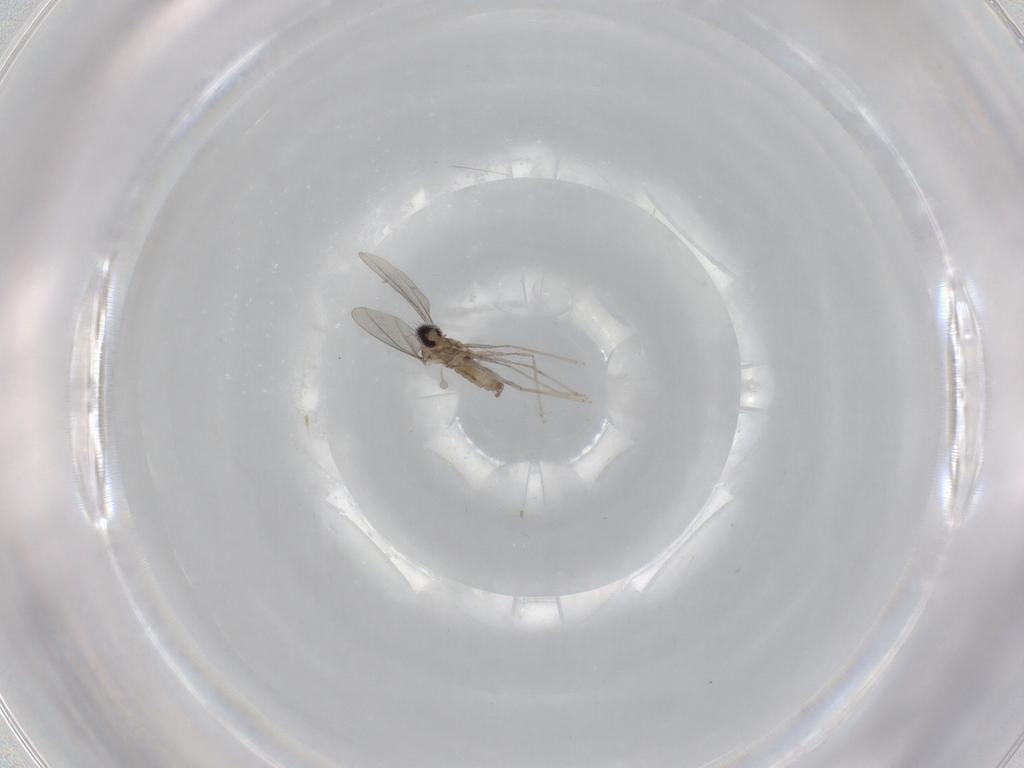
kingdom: Animalia
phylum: Arthropoda
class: Insecta
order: Diptera
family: Cecidomyiidae
